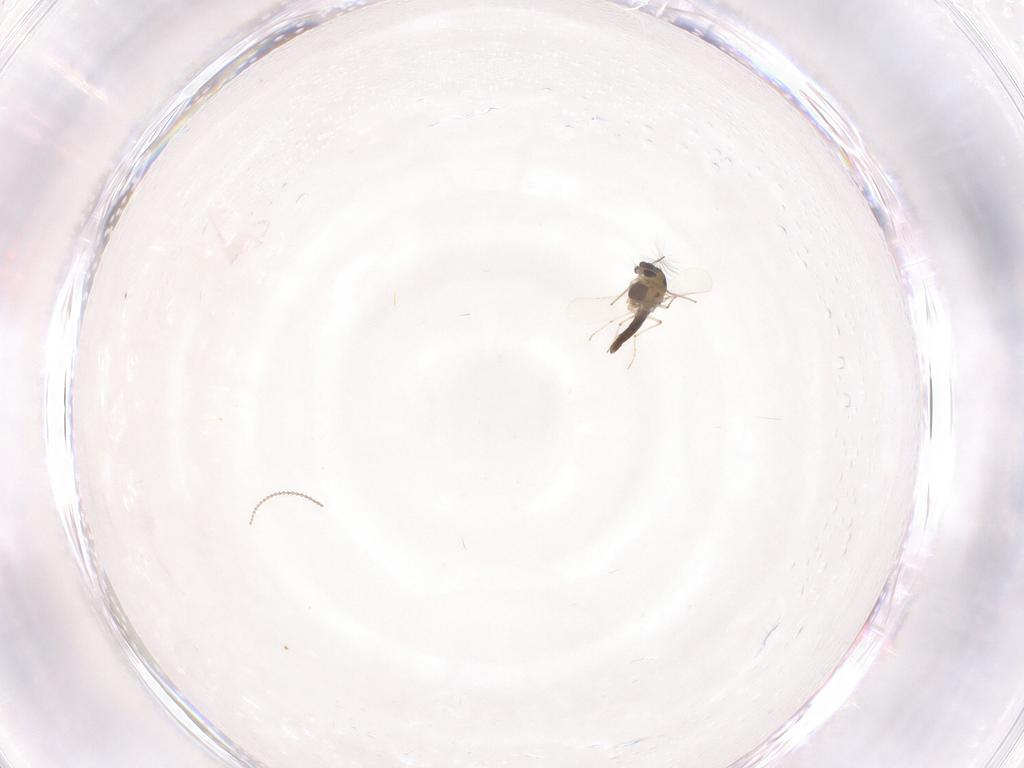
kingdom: Animalia
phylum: Arthropoda
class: Insecta
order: Diptera
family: Chironomidae
